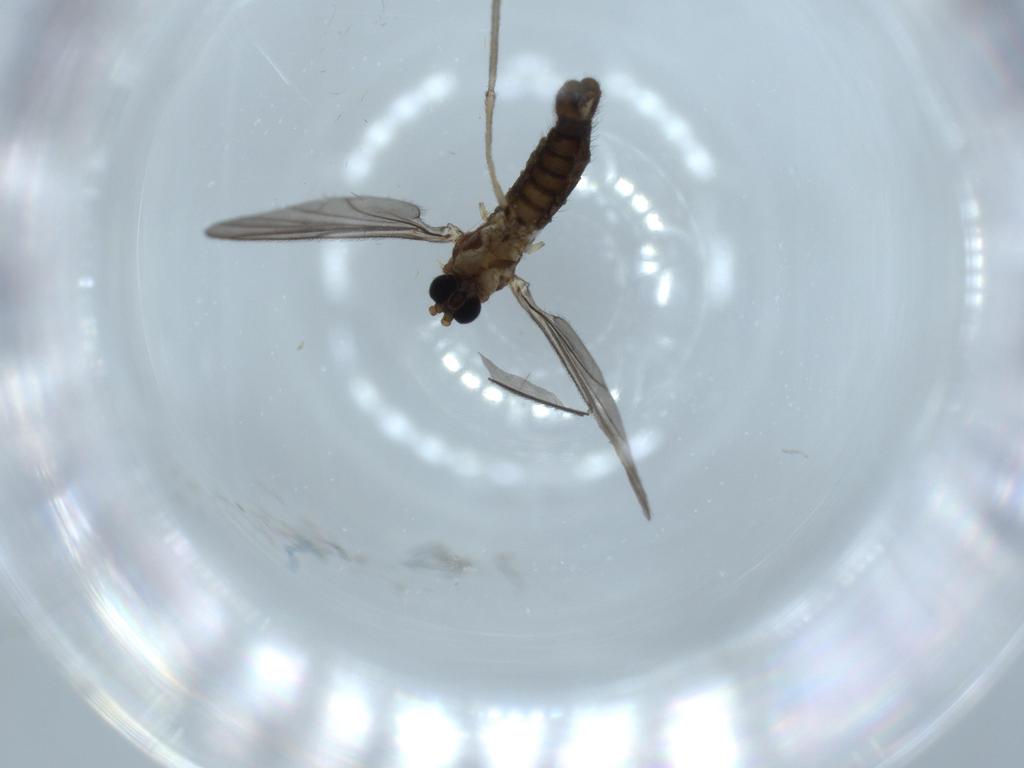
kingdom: Animalia
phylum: Arthropoda
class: Insecta
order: Diptera
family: Sciaridae
